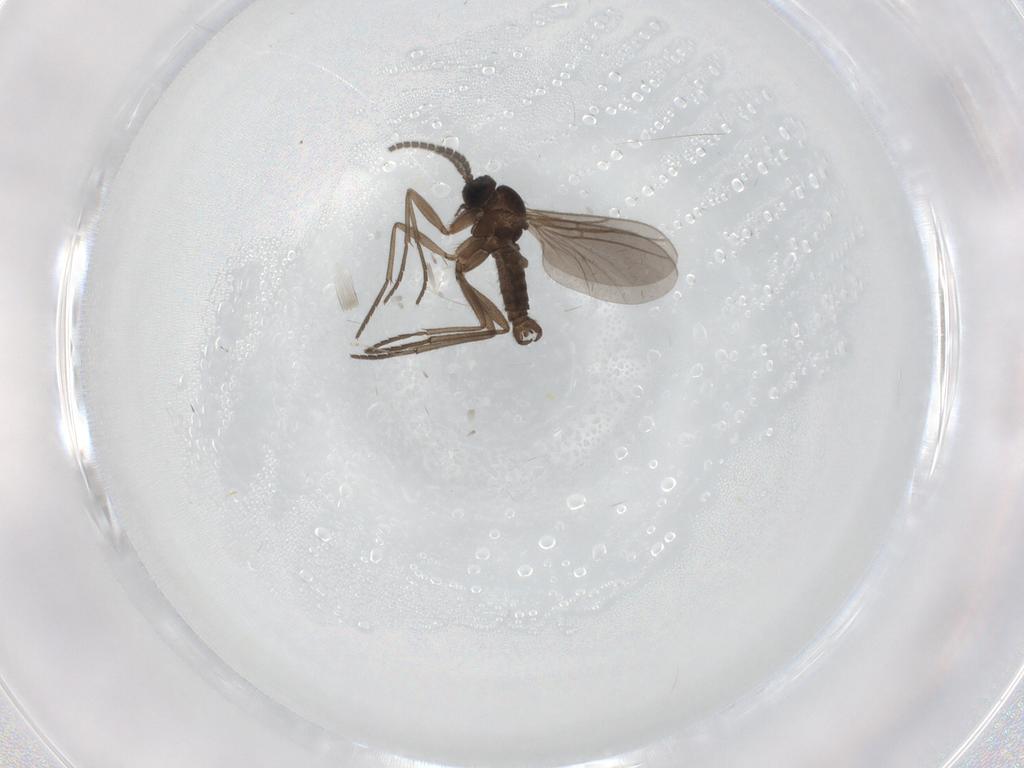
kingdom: Animalia
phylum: Arthropoda
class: Insecta
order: Diptera
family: Sciaridae
